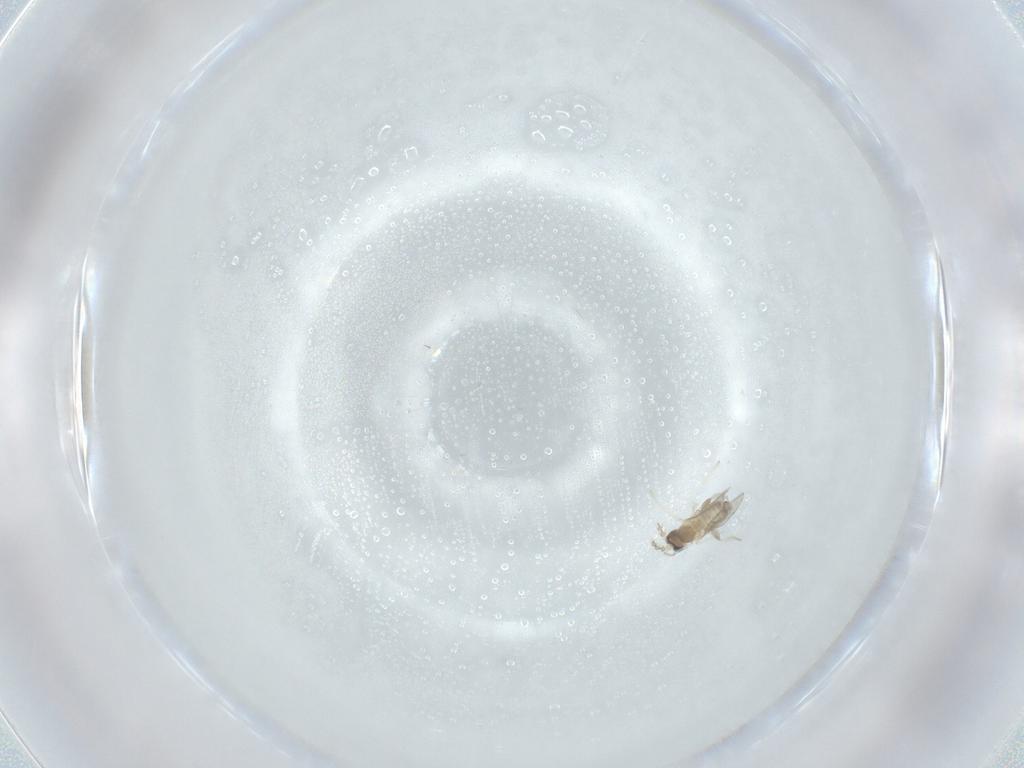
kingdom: Animalia
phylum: Arthropoda
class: Insecta
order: Diptera
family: Cecidomyiidae
